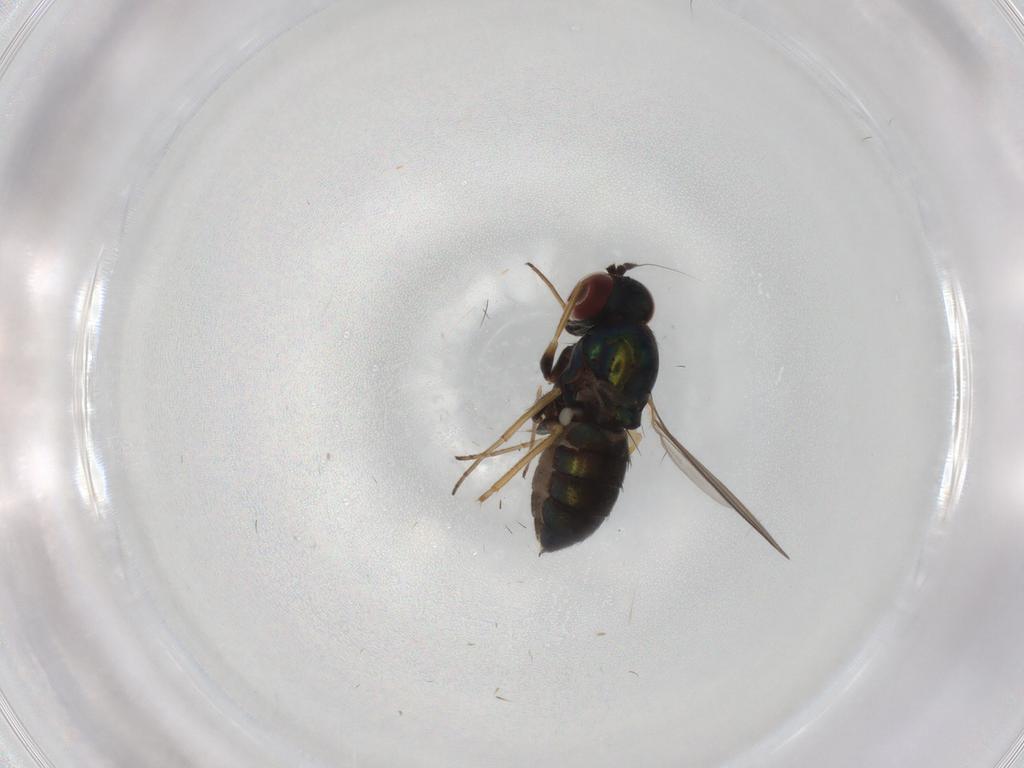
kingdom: Animalia
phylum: Arthropoda
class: Insecta
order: Diptera
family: Dolichopodidae
